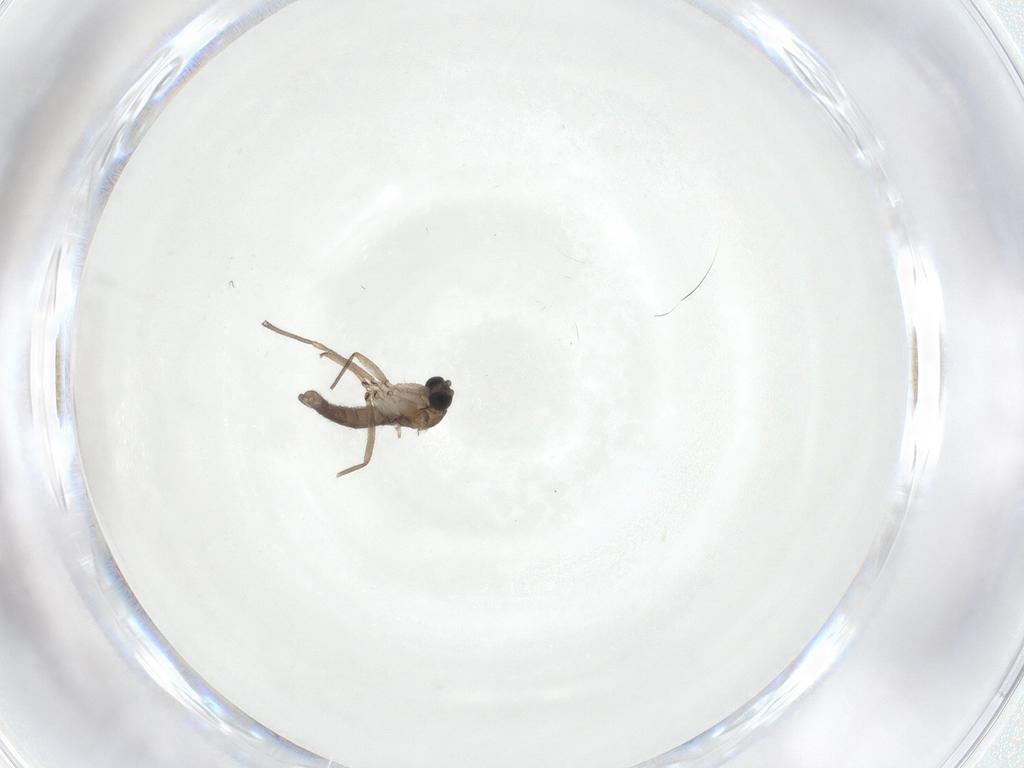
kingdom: Animalia
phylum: Arthropoda
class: Insecta
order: Diptera
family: Sciaridae
